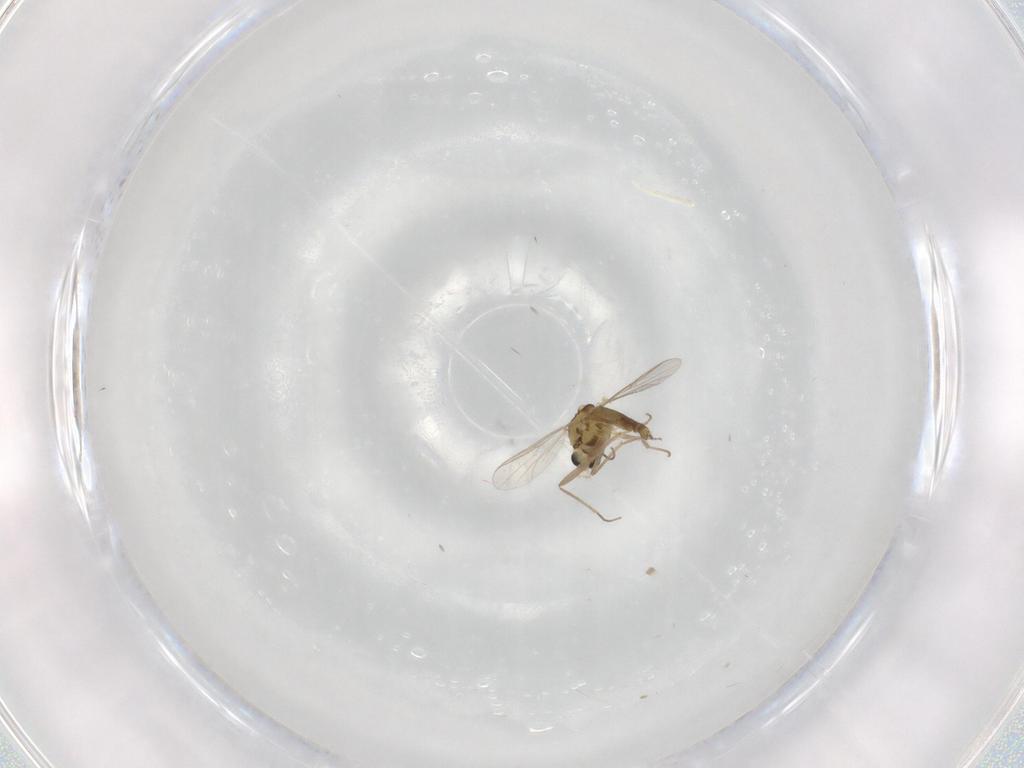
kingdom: Animalia
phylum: Arthropoda
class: Insecta
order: Diptera
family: Chironomidae
